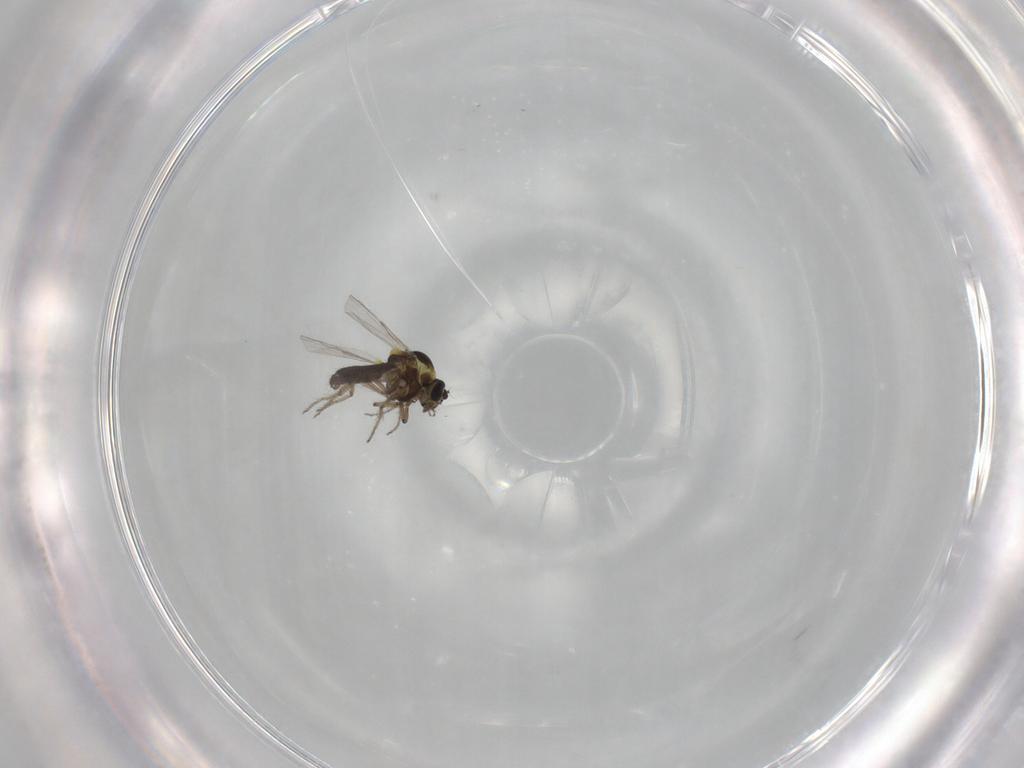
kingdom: Animalia
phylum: Arthropoda
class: Insecta
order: Diptera
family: Ceratopogonidae
